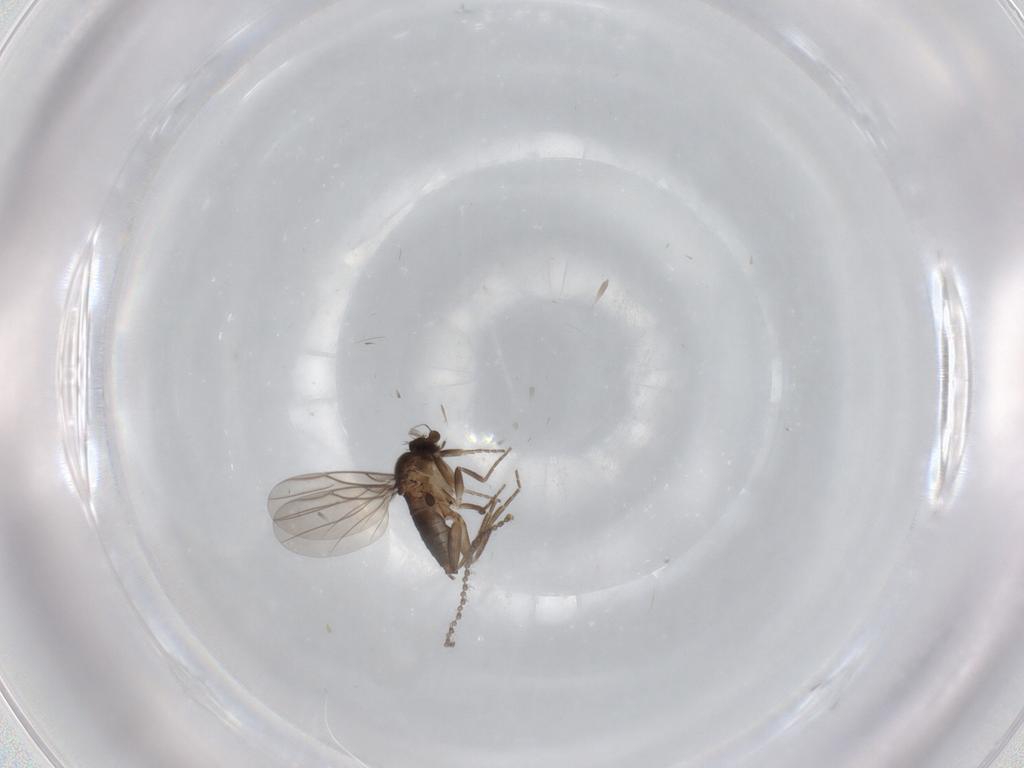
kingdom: Animalia
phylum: Arthropoda
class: Insecta
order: Diptera
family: Cecidomyiidae
